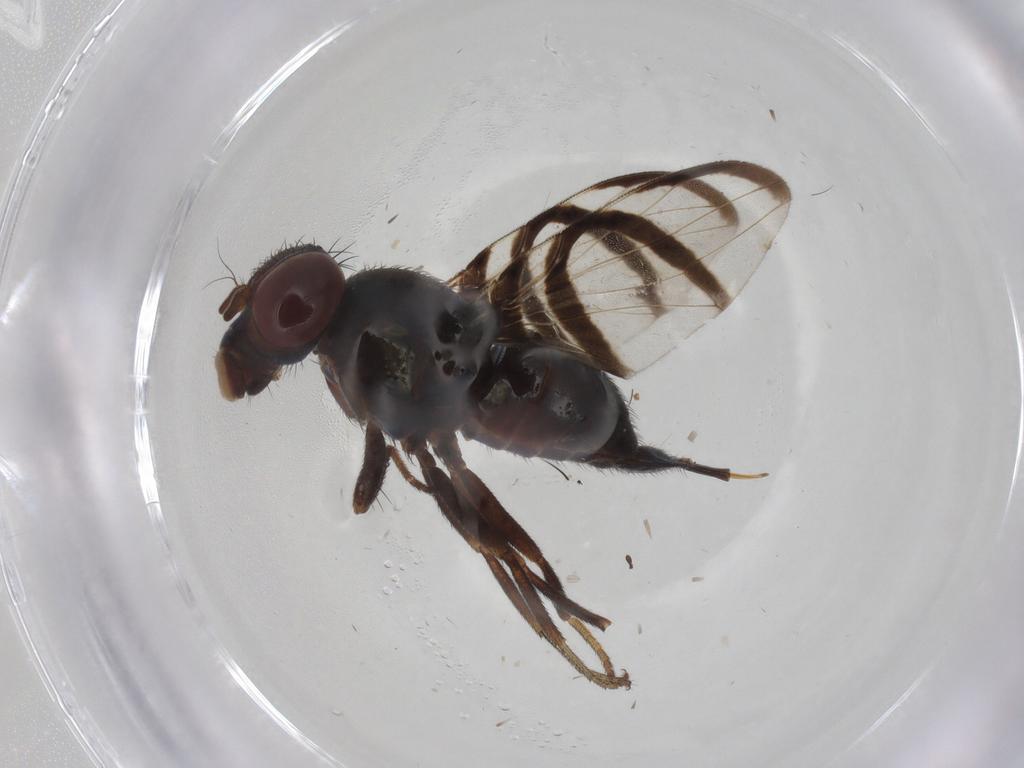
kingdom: Animalia
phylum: Arthropoda
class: Insecta
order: Diptera
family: Ulidiidae
